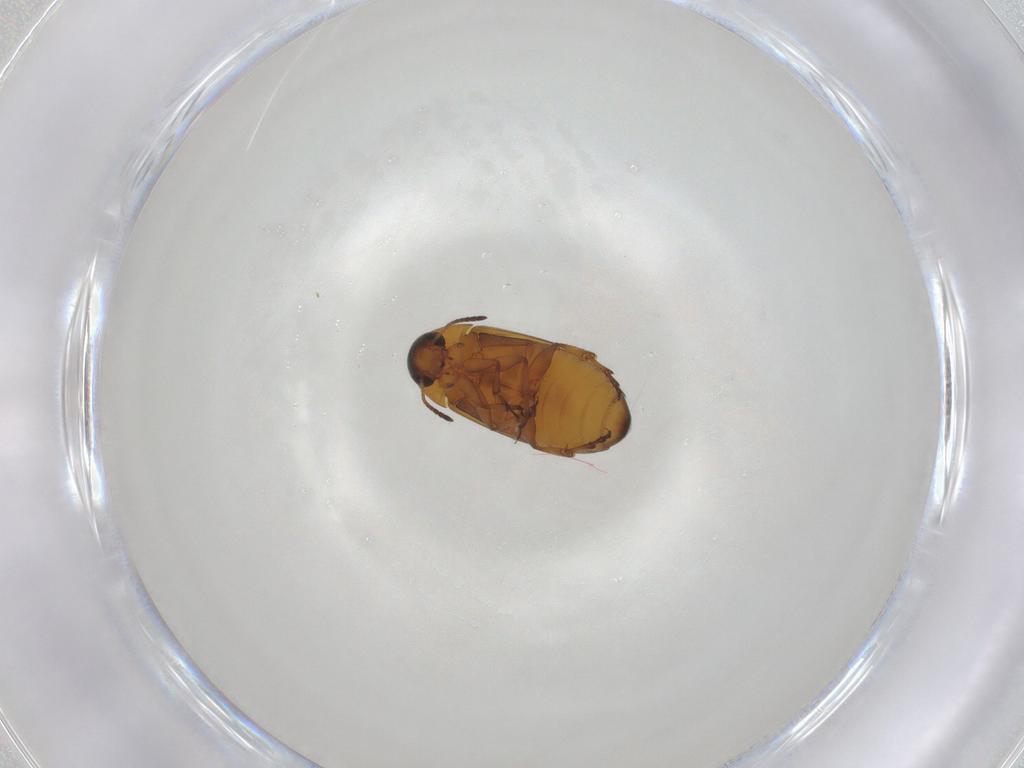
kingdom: Animalia
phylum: Arthropoda
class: Insecta
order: Coleoptera
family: Scraptiidae
